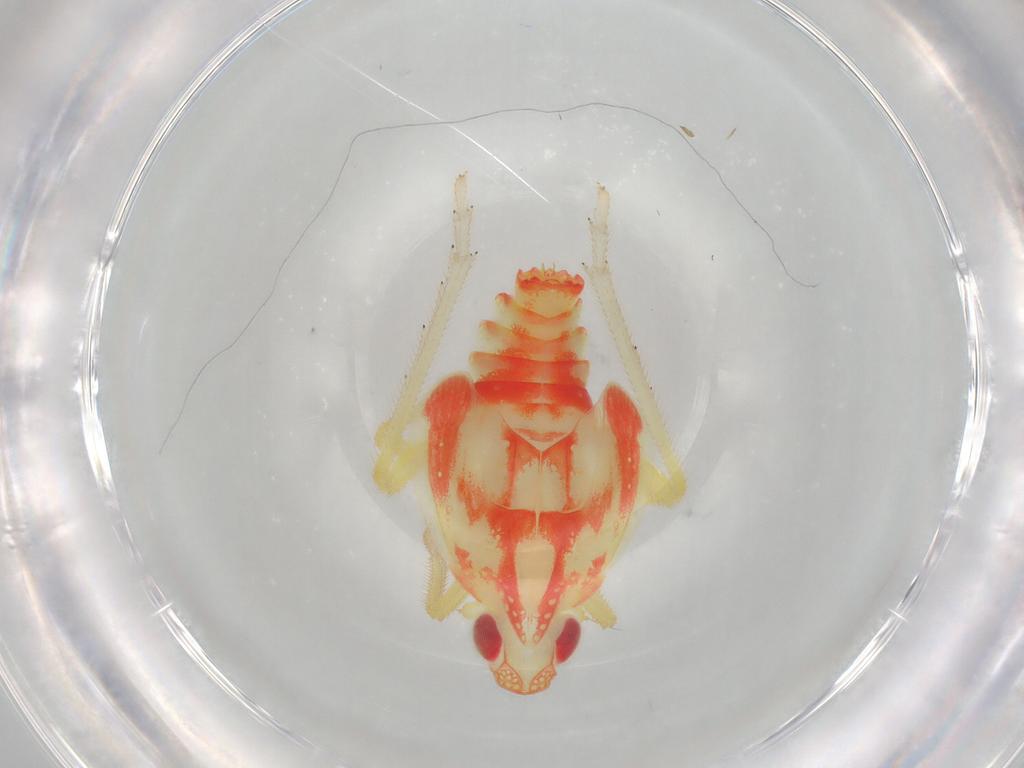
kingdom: Animalia
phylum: Arthropoda
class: Insecta
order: Hemiptera
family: Tropiduchidae
